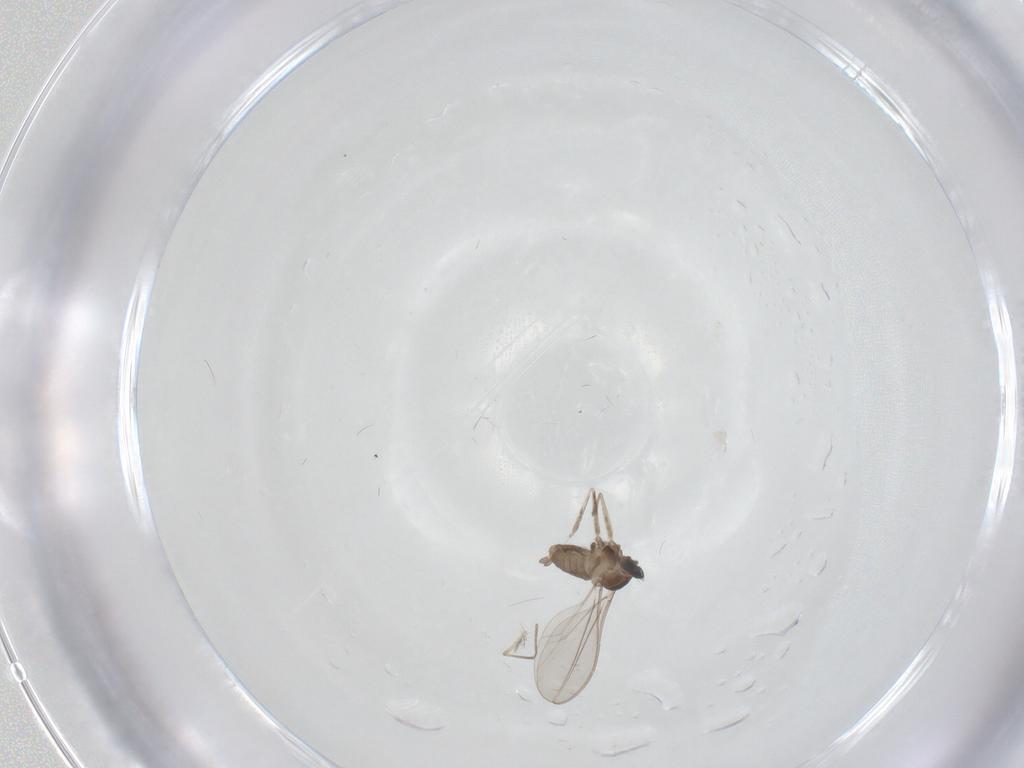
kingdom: Animalia
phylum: Arthropoda
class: Insecta
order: Diptera
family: Cecidomyiidae
